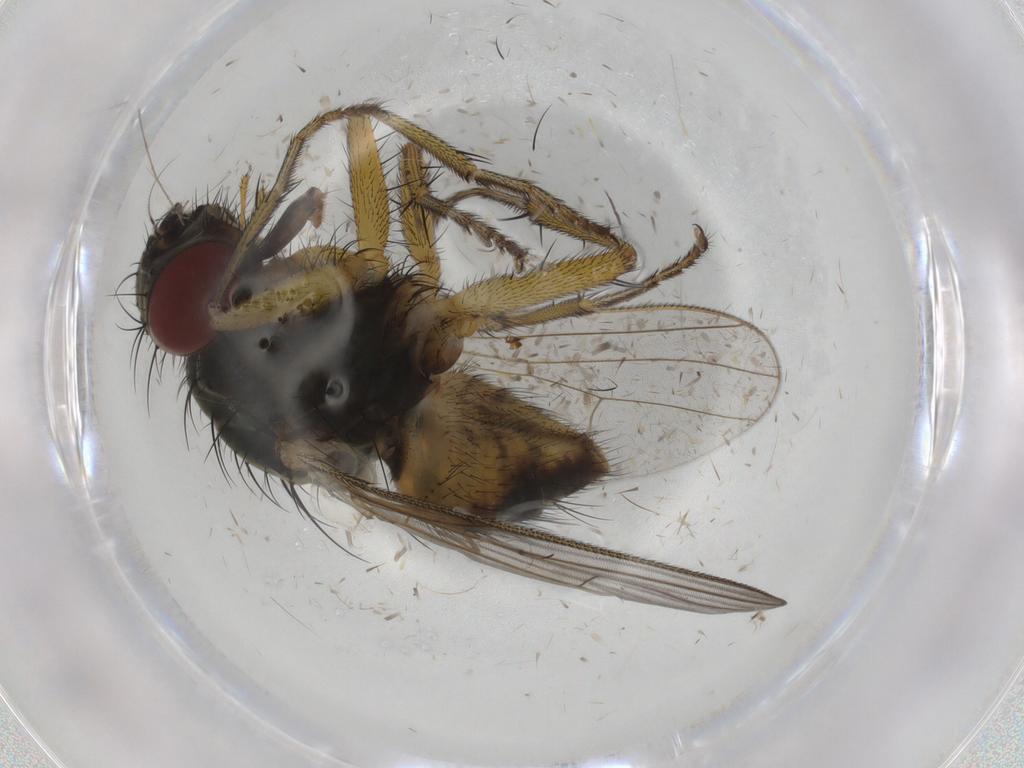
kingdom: Animalia
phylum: Arthropoda
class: Insecta
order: Diptera
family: Muscidae
